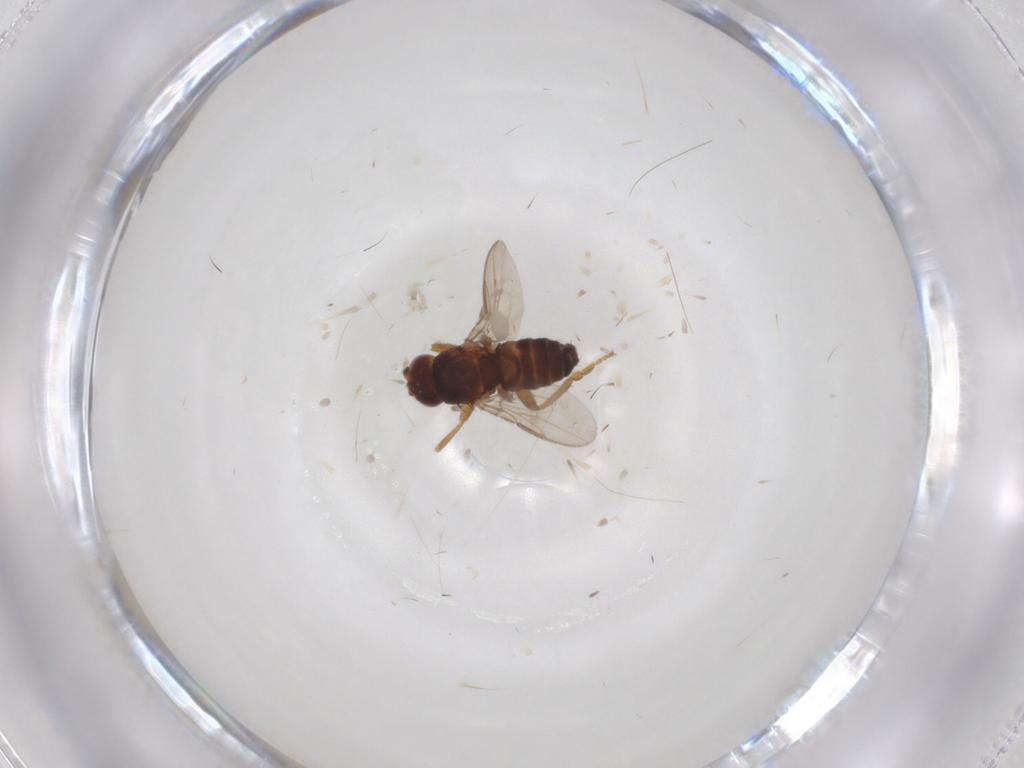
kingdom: Animalia
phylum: Arthropoda
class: Insecta
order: Diptera
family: Sphaeroceridae
